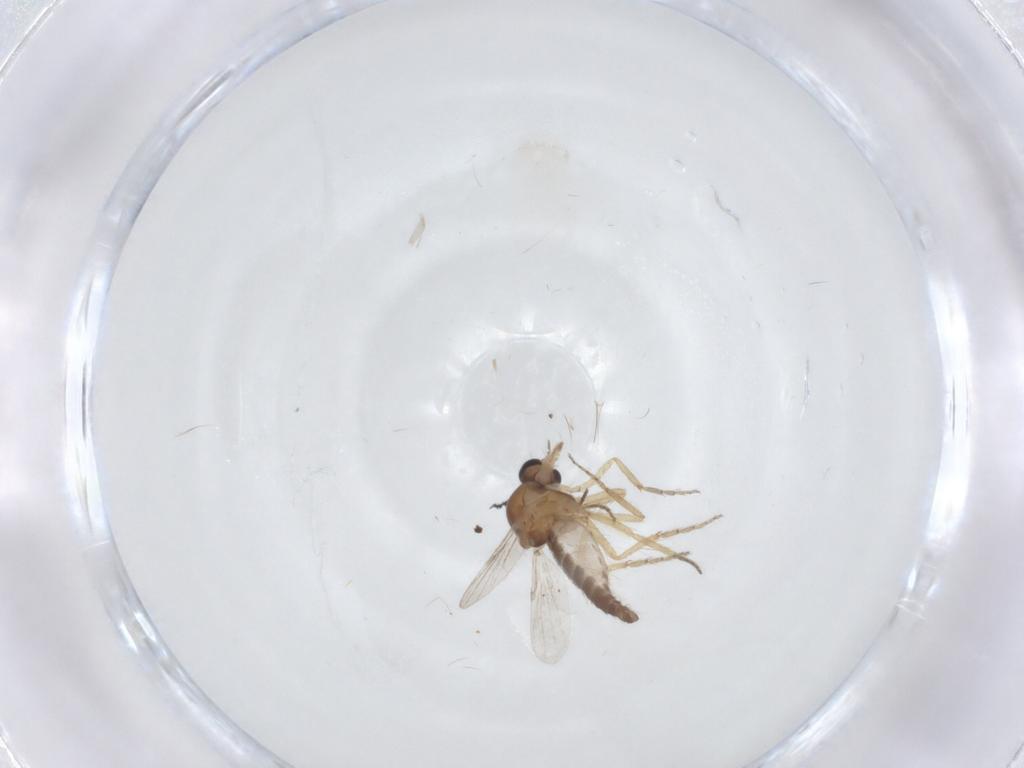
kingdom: Animalia
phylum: Arthropoda
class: Insecta
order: Diptera
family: Ceratopogonidae
